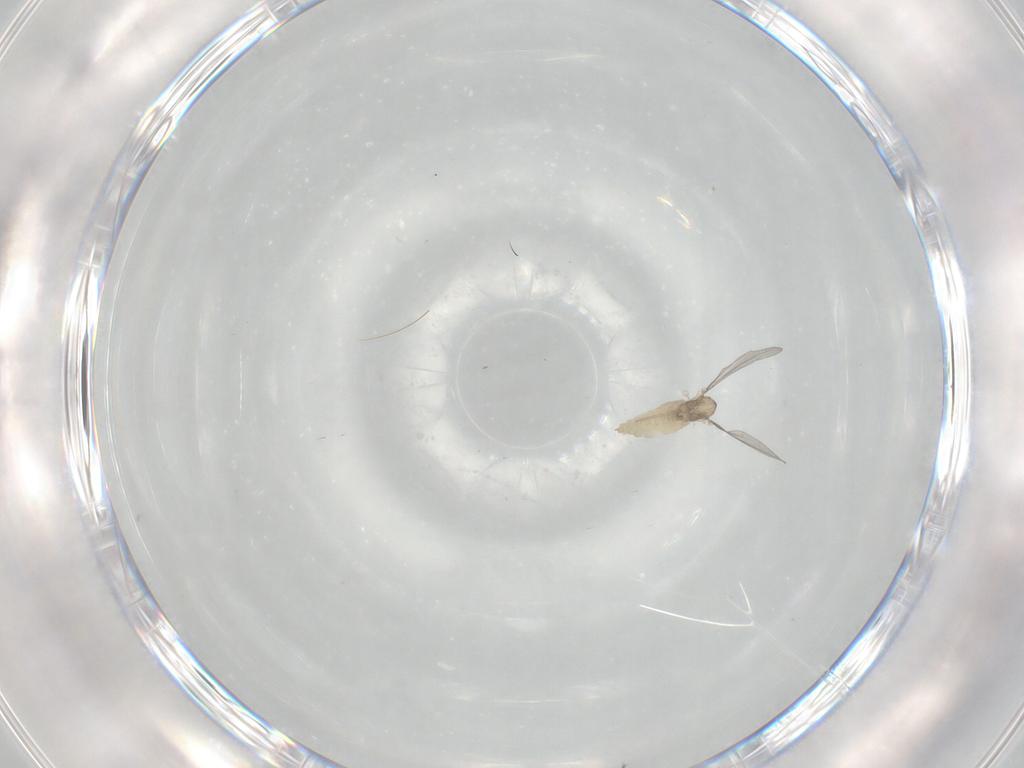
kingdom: Animalia
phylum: Arthropoda
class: Insecta
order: Diptera
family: Cecidomyiidae
